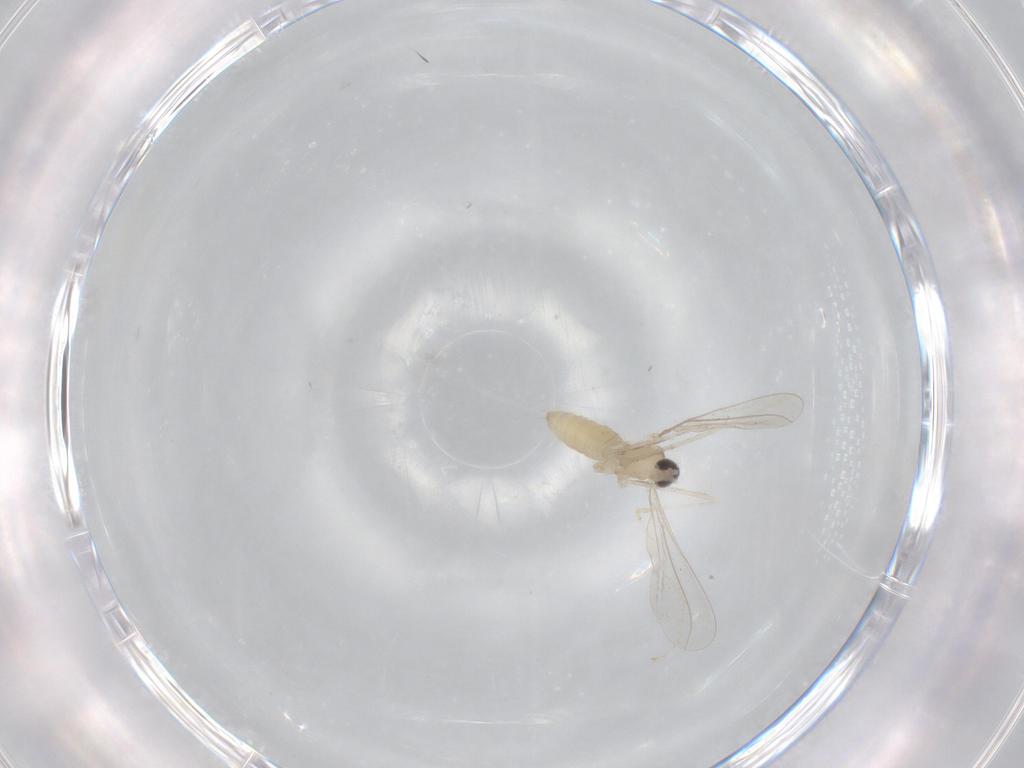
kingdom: Animalia
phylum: Arthropoda
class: Insecta
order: Diptera
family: Cecidomyiidae
